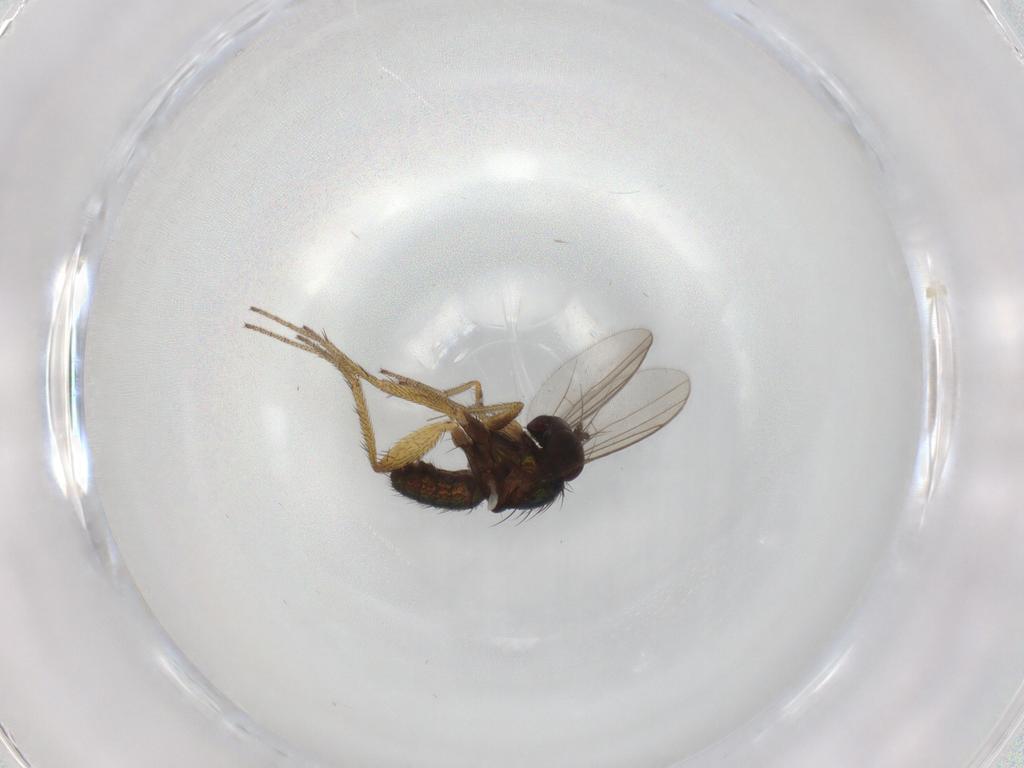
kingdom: Animalia
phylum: Arthropoda
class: Insecta
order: Diptera
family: Dolichopodidae
